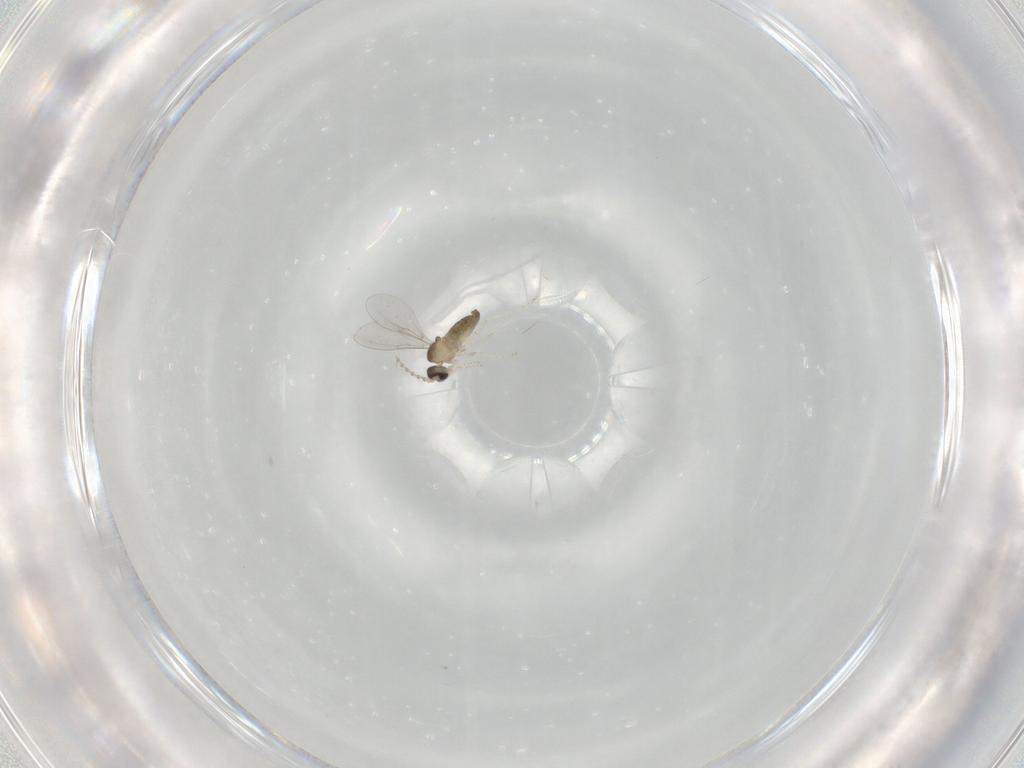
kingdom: Animalia
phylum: Arthropoda
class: Insecta
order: Diptera
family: Cecidomyiidae
